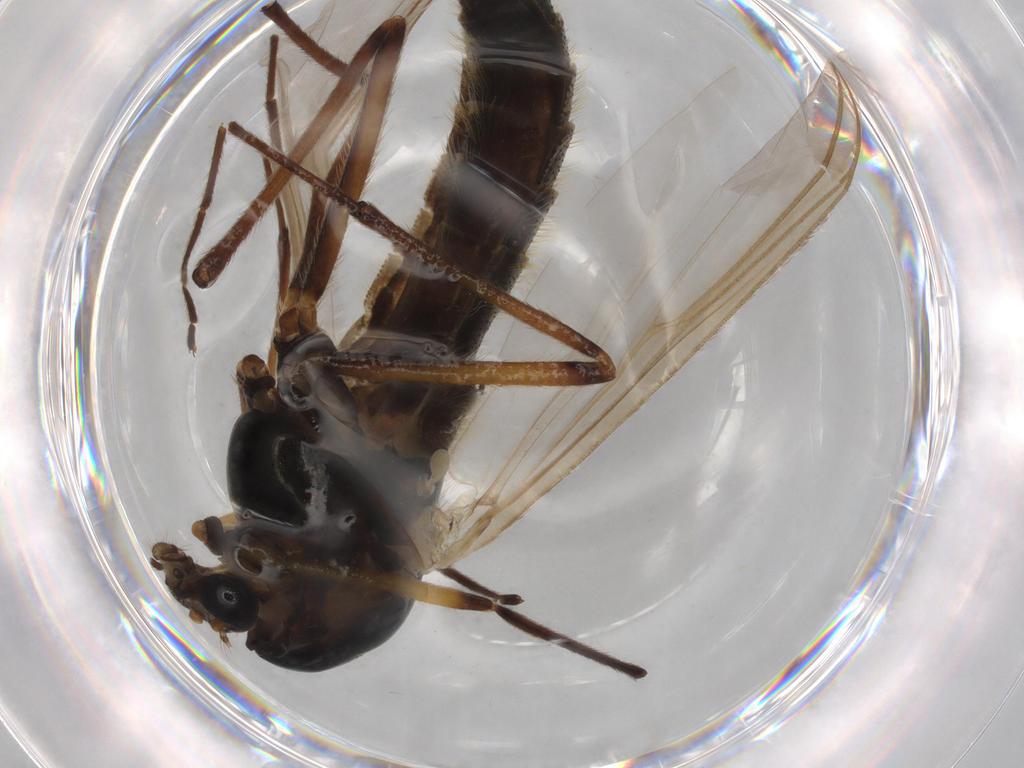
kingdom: Animalia
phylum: Arthropoda
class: Insecta
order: Diptera
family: Chironomidae
